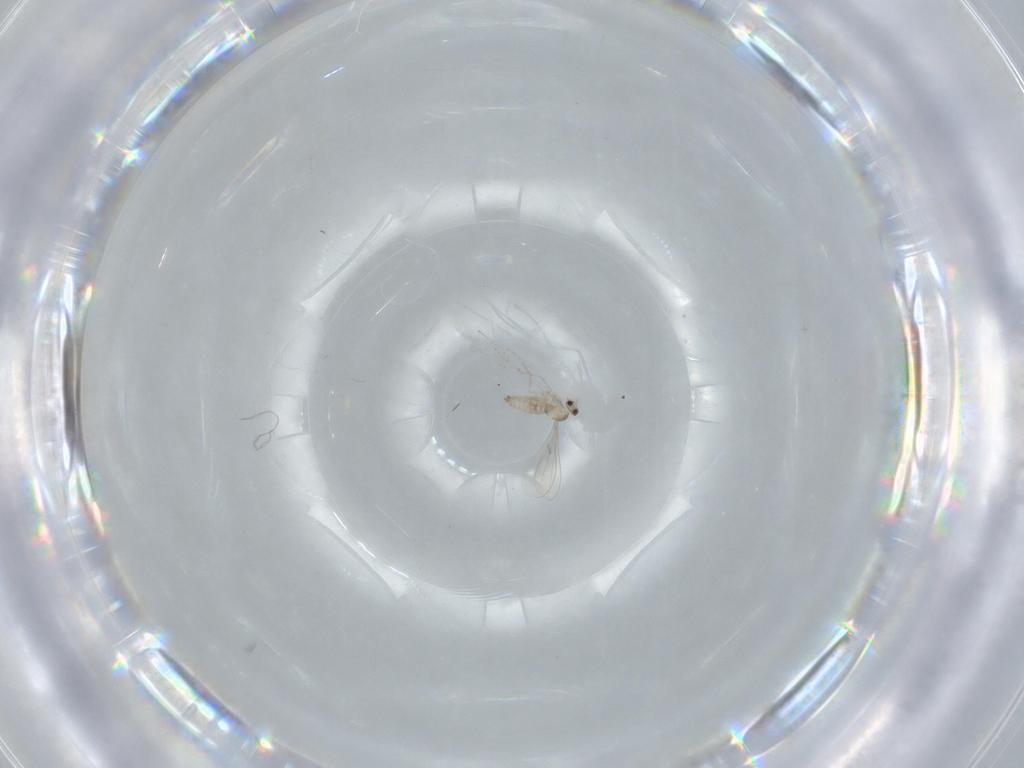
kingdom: Animalia
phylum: Arthropoda
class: Insecta
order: Diptera
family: Cecidomyiidae
